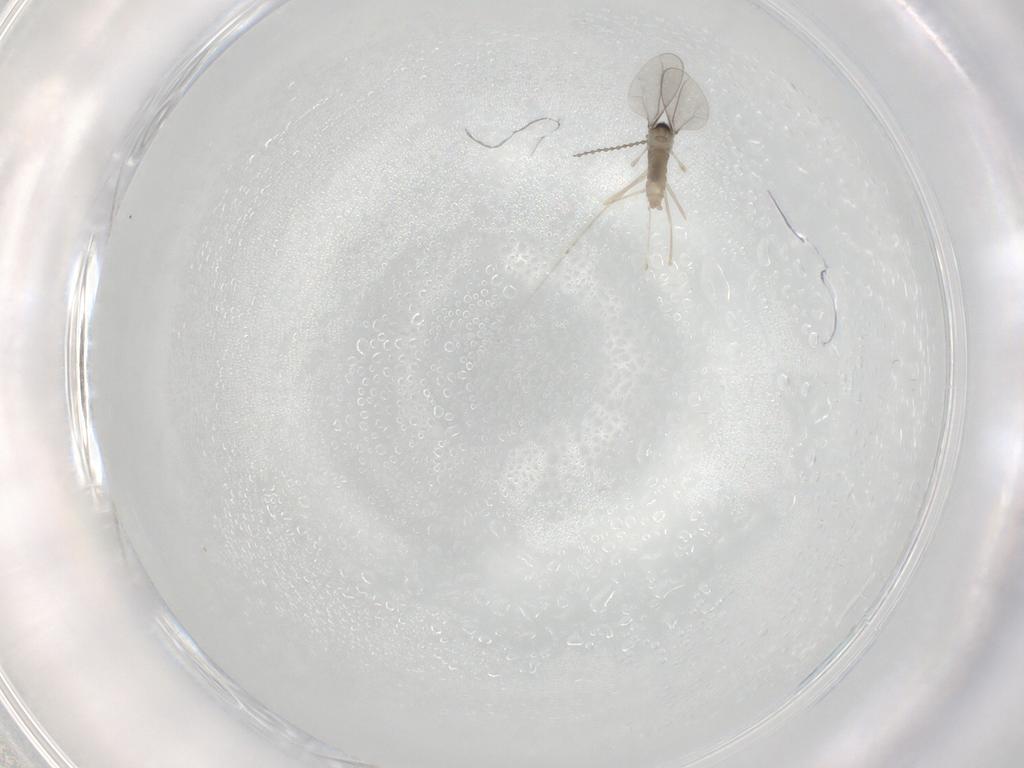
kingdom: Animalia
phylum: Arthropoda
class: Insecta
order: Diptera
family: Cecidomyiidae
